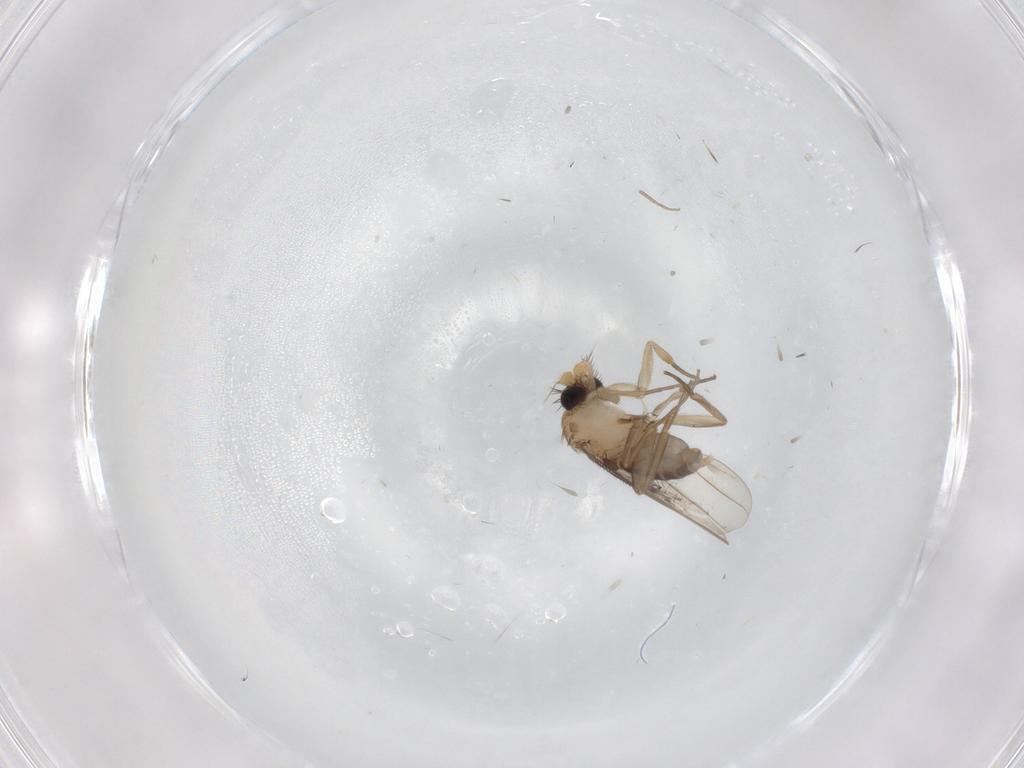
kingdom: Animalia
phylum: Arthropoda
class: Insecta
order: Diptera
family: Phoridae
